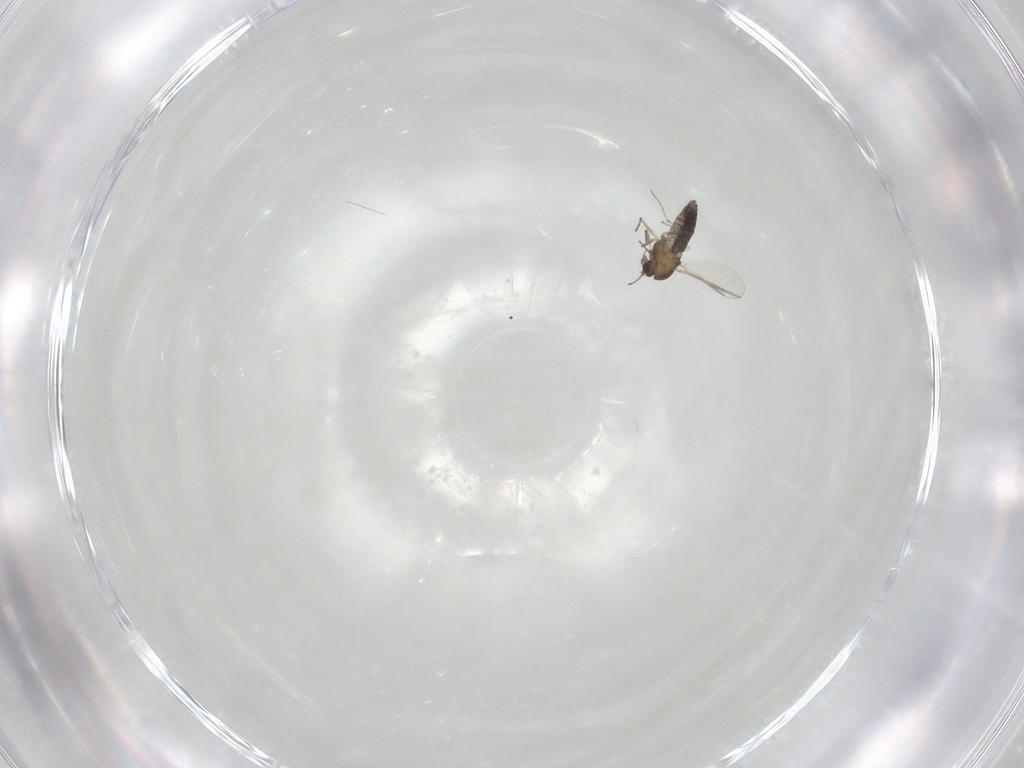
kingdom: Animalia
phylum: Arthropoda
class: Insecta
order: Diptera
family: Chironomidae
